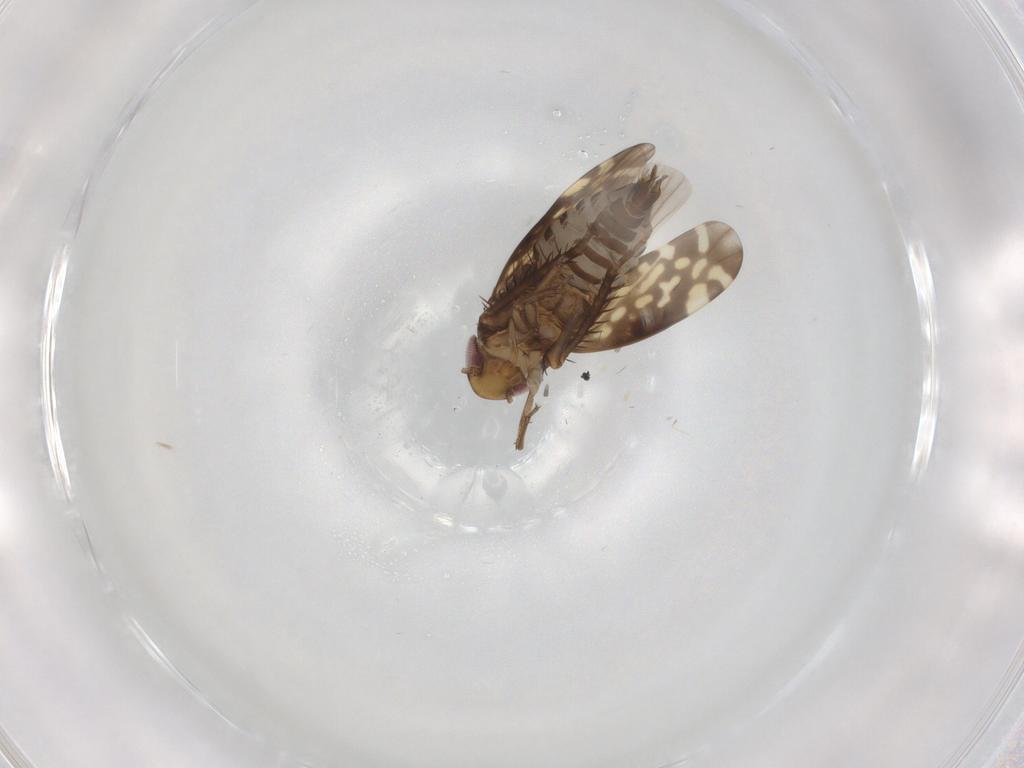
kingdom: Animalia
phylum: Arthropoda
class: Insecta
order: Hemiptera
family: Cicadellidae
